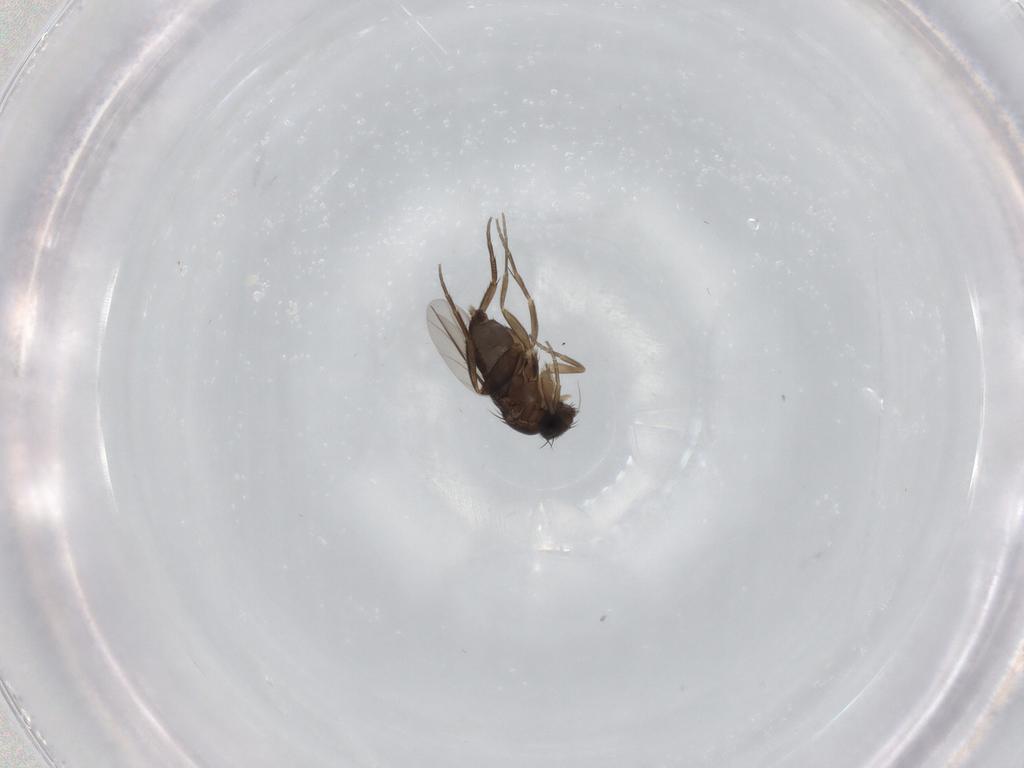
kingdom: Animalia
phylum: Arthropoda
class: Insecta
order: Diptera
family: Phoridae
